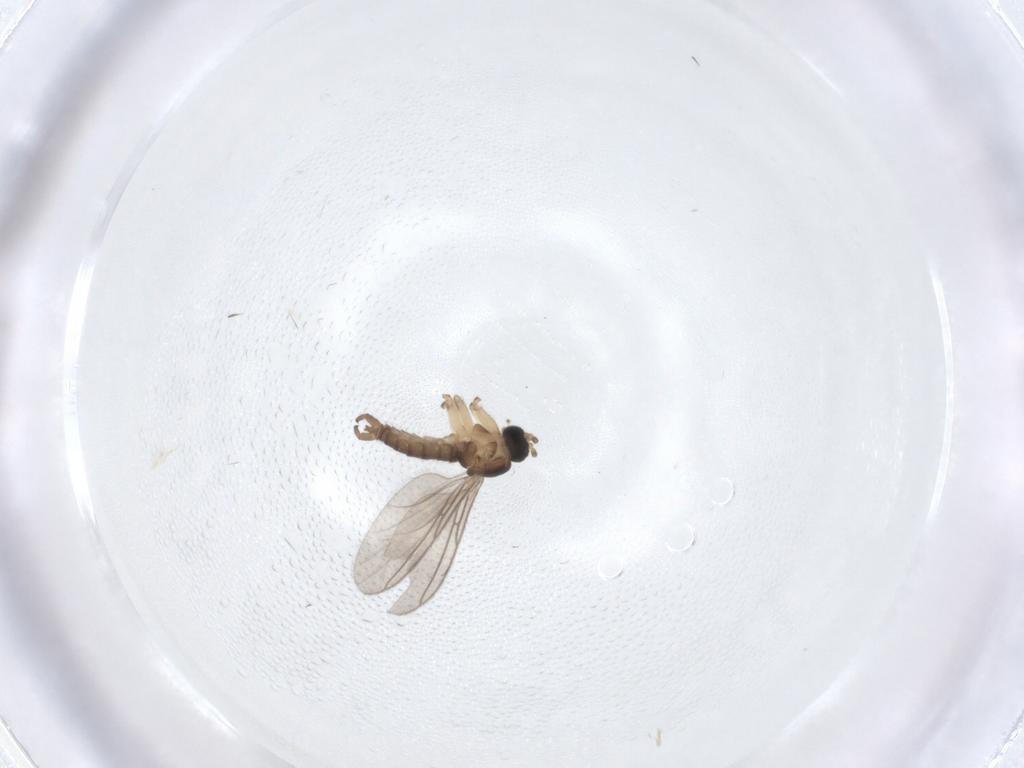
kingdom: Animalia
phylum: Arthropoda
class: Insecta
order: Diptera
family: Sciaridae
